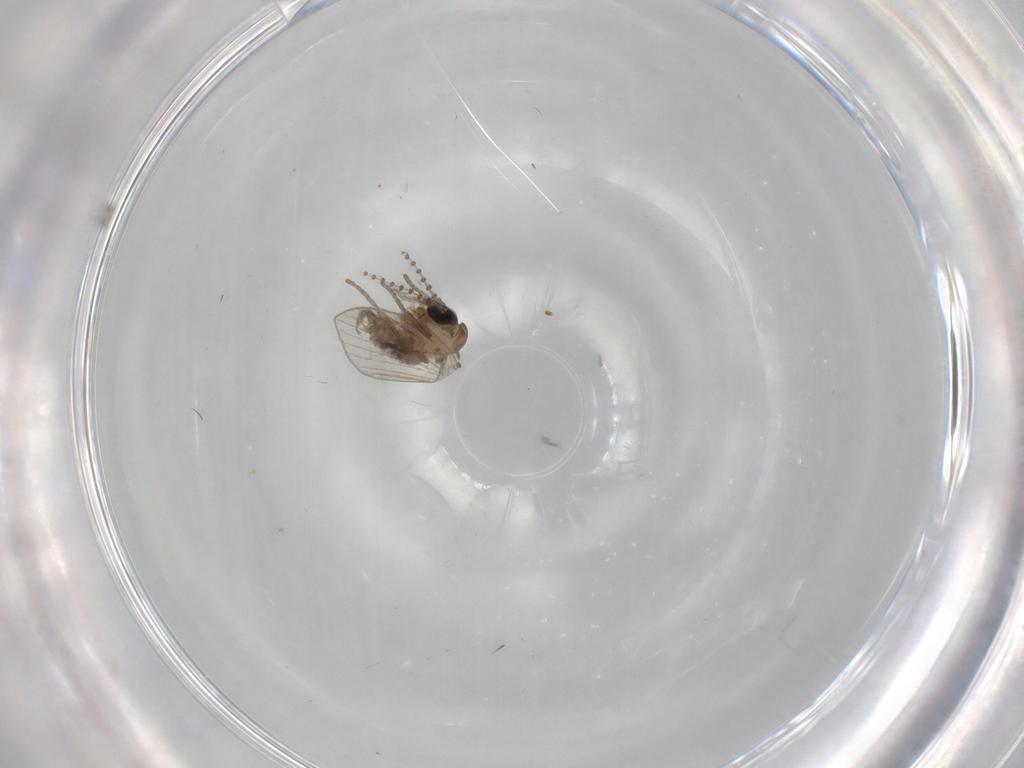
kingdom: Animalia
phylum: Arthropoda
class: Insecta
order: Diptera
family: Psychodidae
